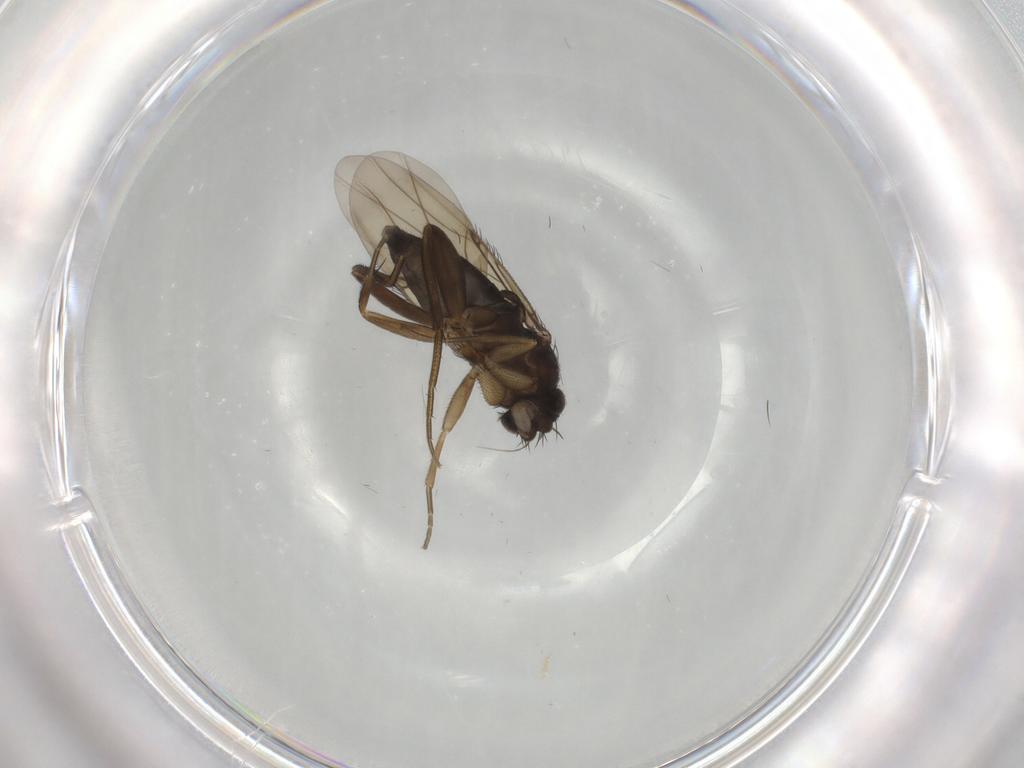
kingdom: Animalia
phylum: Arthropoda
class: Insecta
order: Diptera
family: Phoridae
